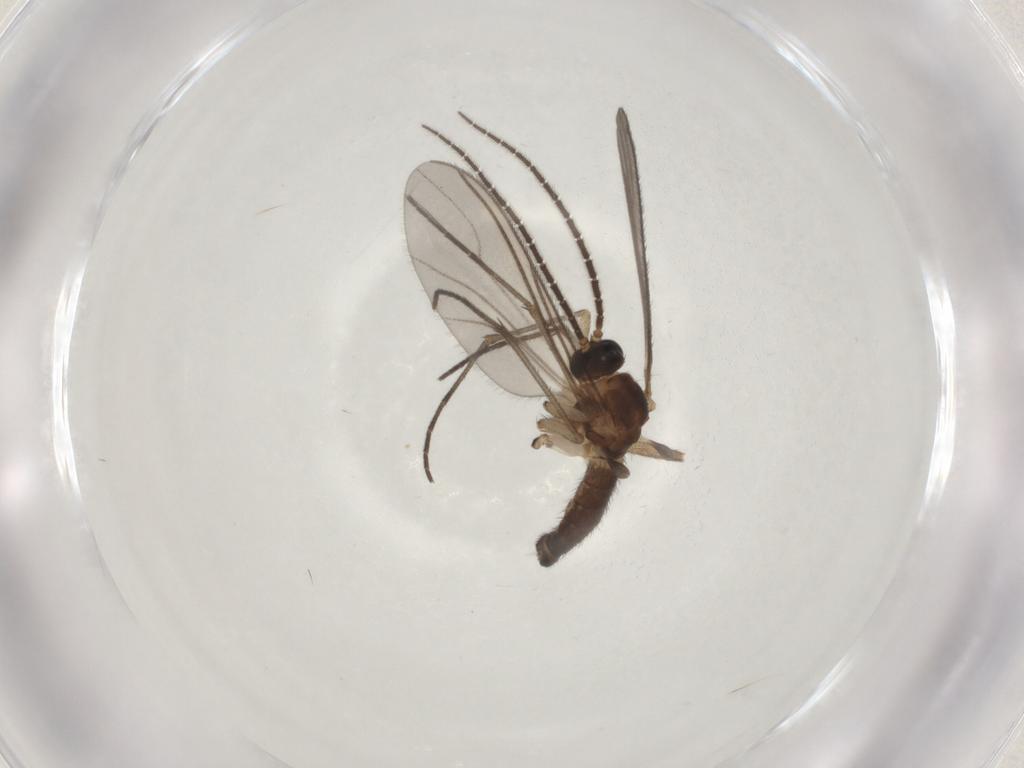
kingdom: Animalia
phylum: Arthropoda
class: Insecta
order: Diptera
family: Sciaridae
